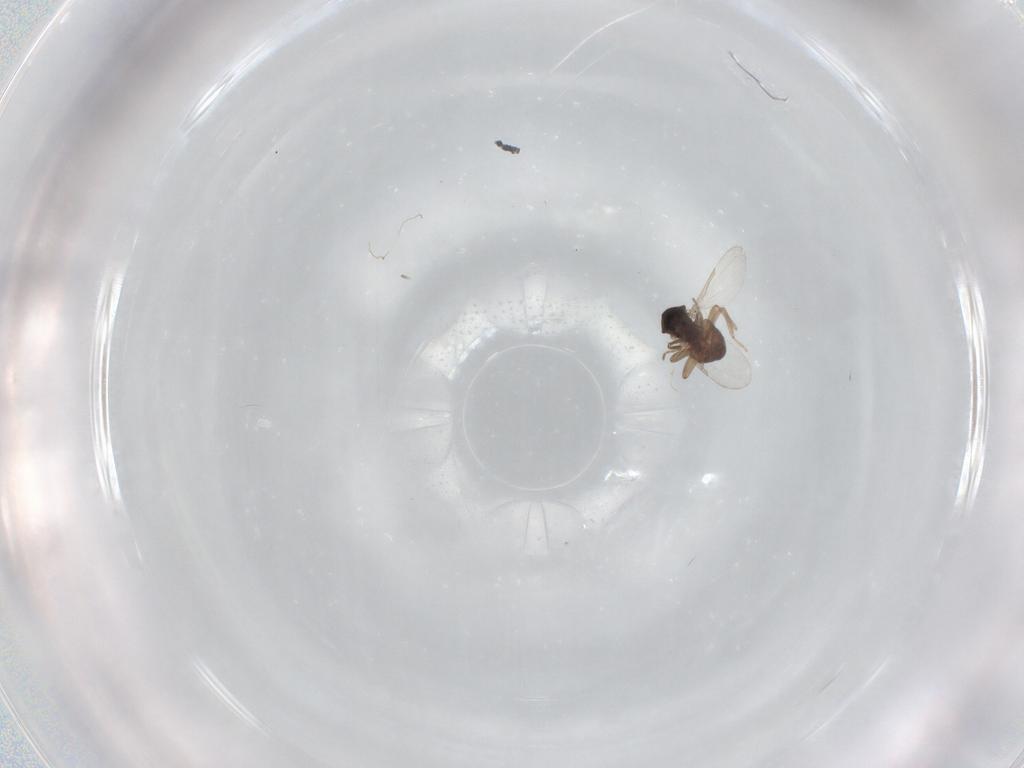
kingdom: Animalia
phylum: Arthropoda
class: Insecta
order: Diptera
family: Ceratopogonidae
